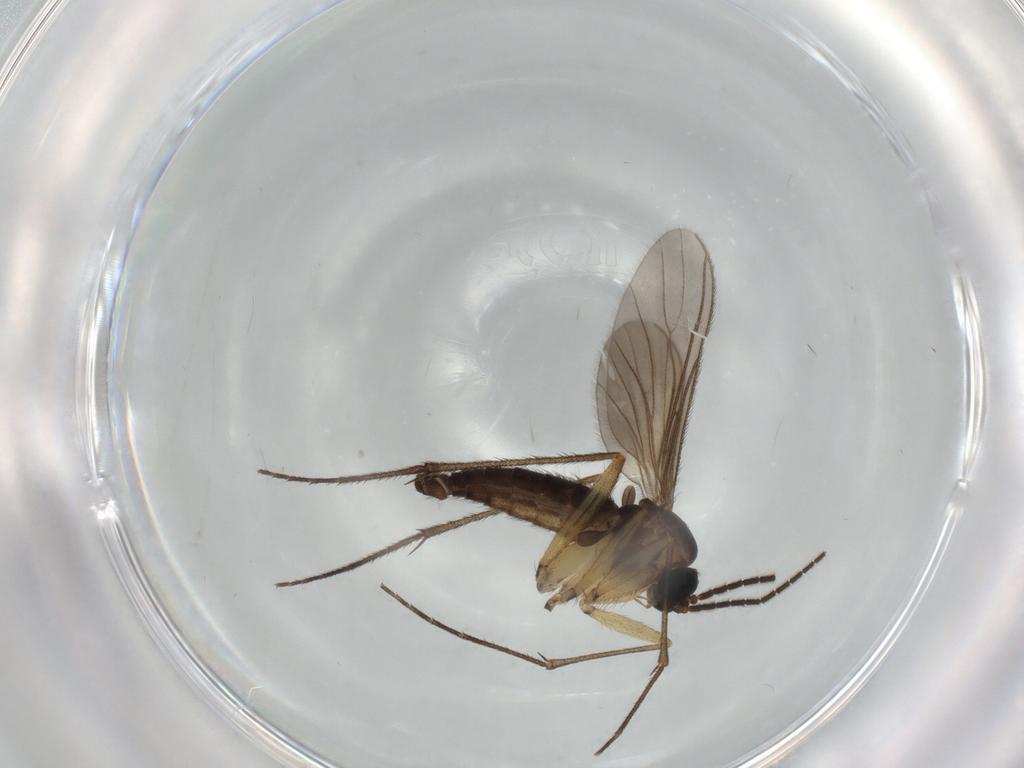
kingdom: Animalia
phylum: Arthropoda
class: Insecta
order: Diptera
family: Micropezidae
